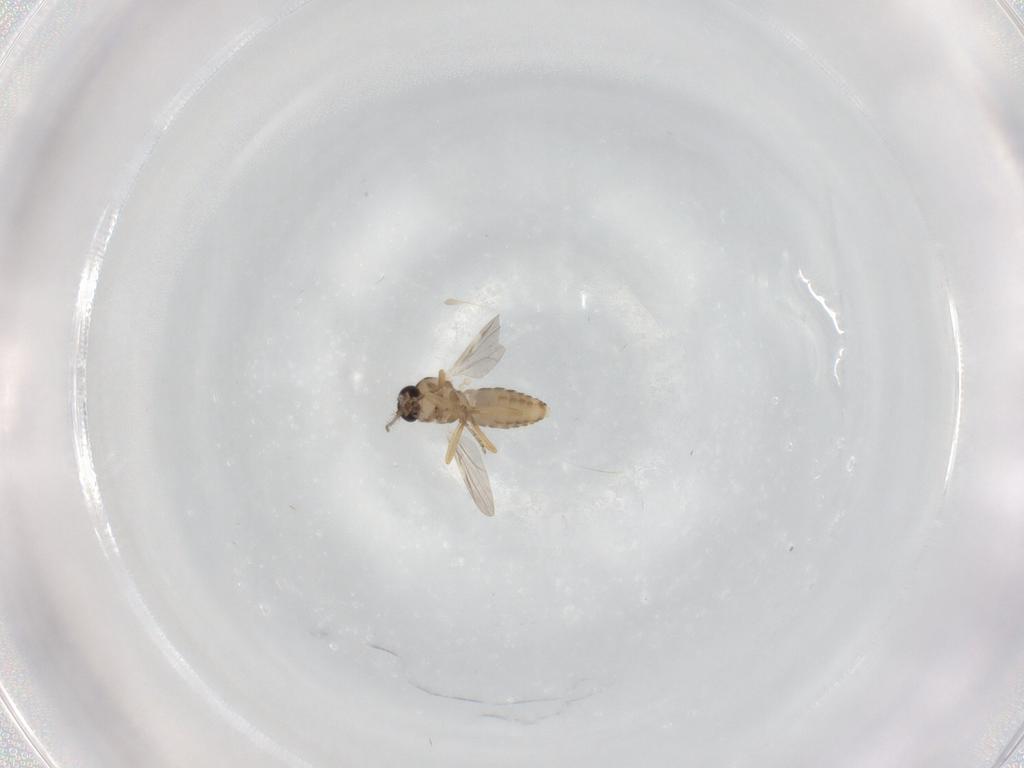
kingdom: Animalia
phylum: Arthropoda
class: Insecta
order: Diptera
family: Ceratopogonidae
